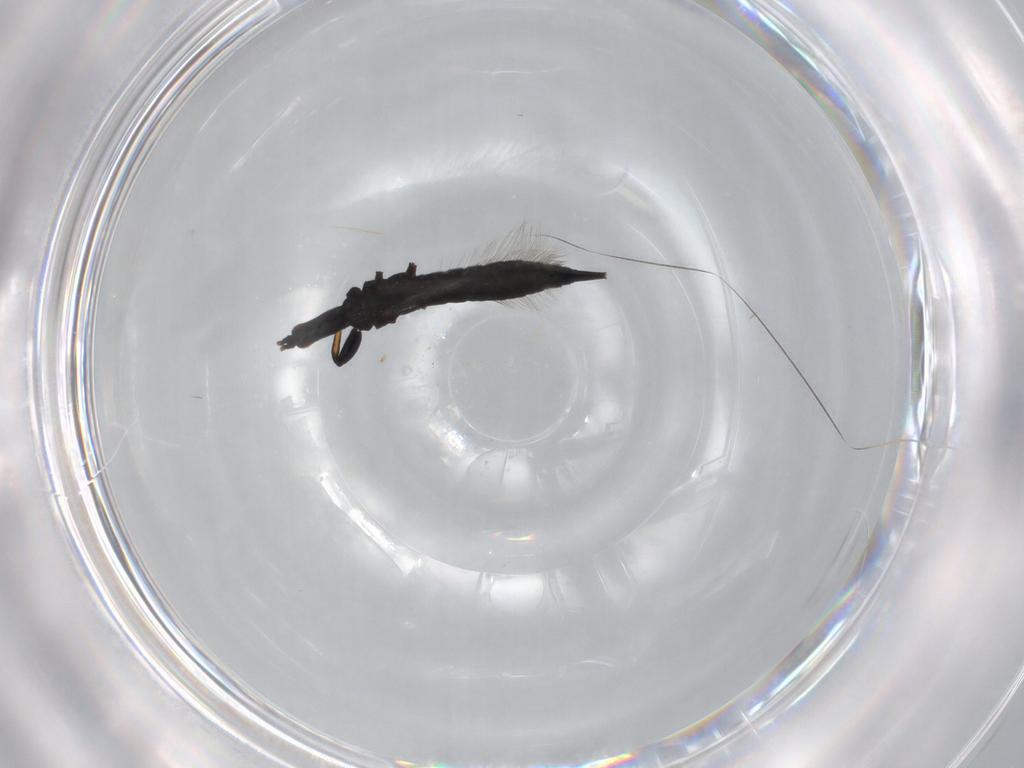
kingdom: Animalia
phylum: Arthropoda
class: Insecta
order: Thysanoptera
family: Phlaeothripidae
